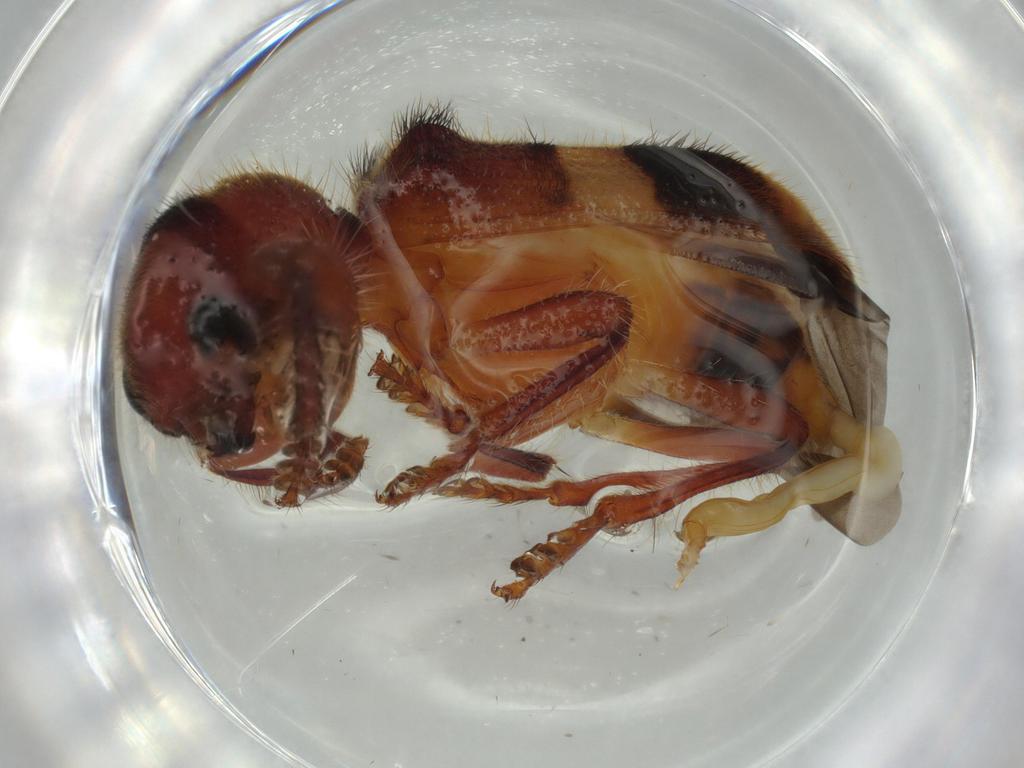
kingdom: Animalia
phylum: Arthropoda
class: Insecta
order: Coleoptera
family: Cleridae
